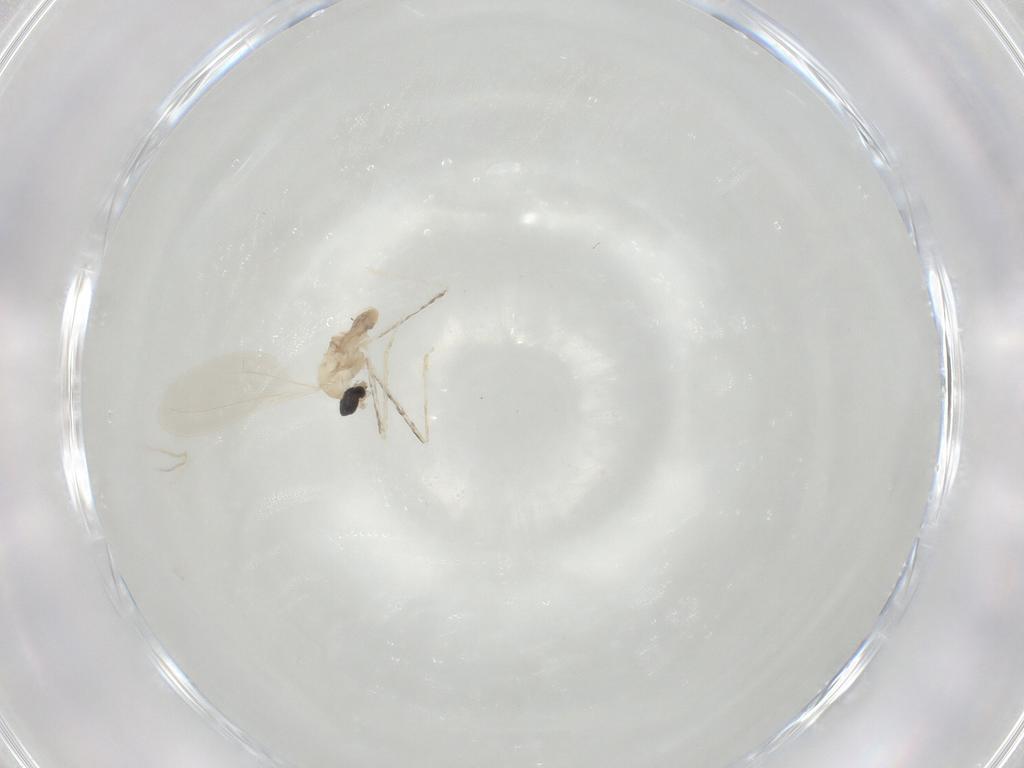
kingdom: Animalia
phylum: Arthropoda
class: Insecta
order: Diptera
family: Cecidomyiidae
